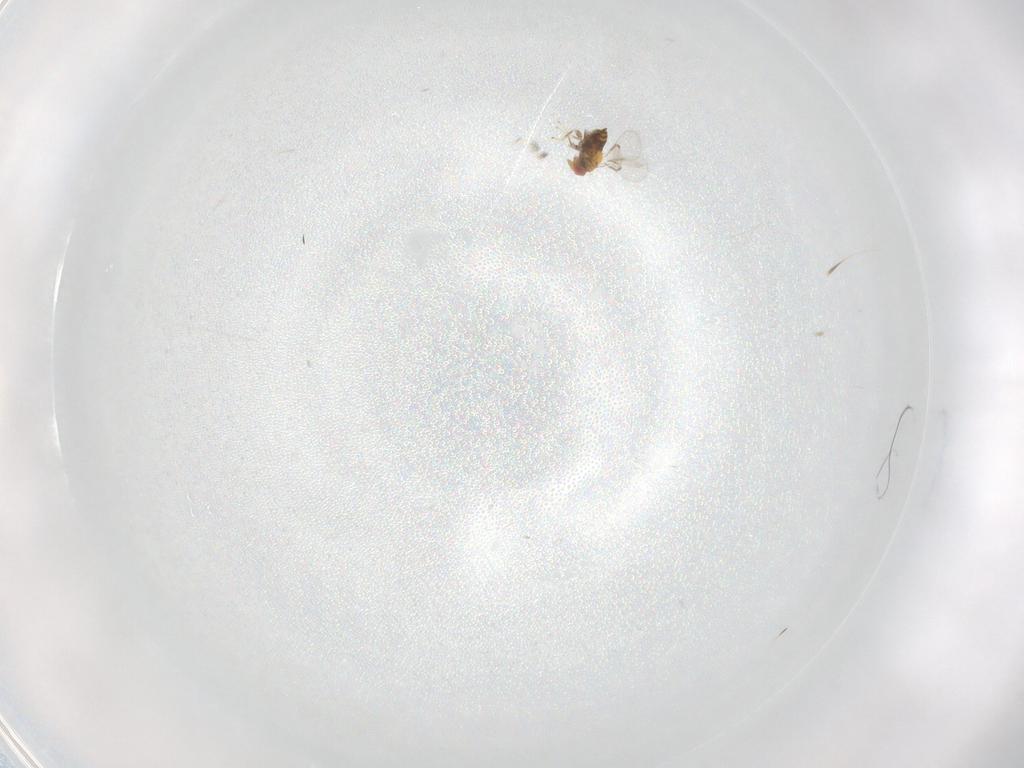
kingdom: Animalia
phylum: Arthropoda
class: Insecta
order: Hymenoptera
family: Trichogrammatidae
